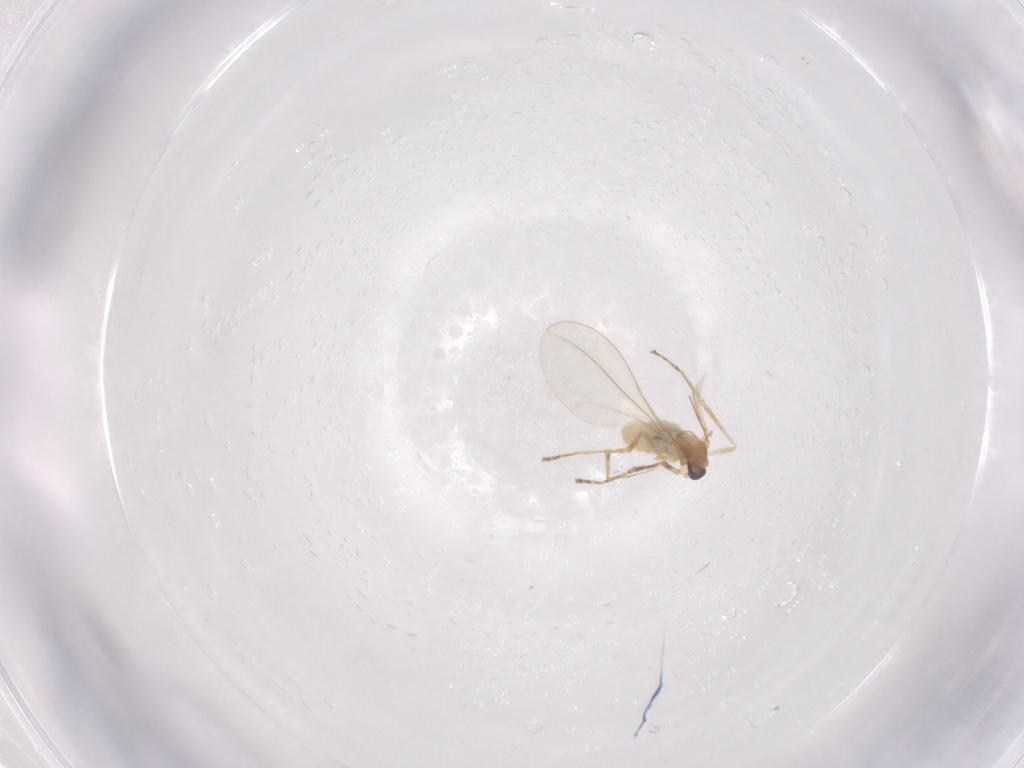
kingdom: Animalia
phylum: Arthropoda
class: Insecta
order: Diptera
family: Cecidomyiidae
